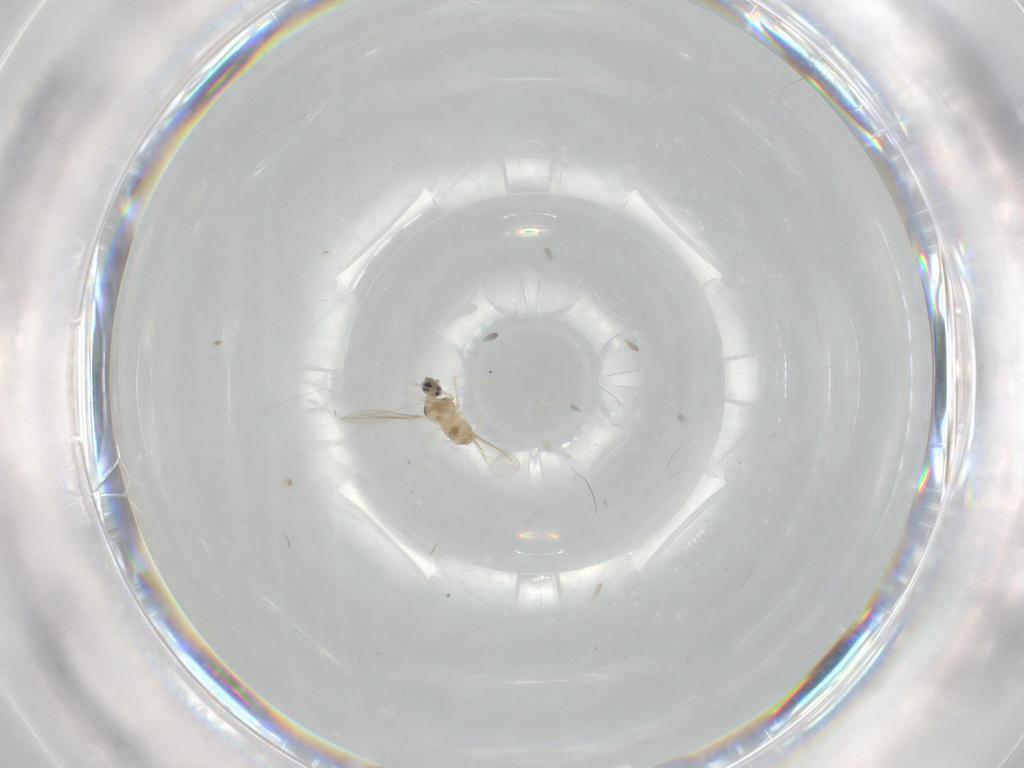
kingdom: Animalia
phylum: Arthropoda
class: Insecta
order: Diptera
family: Cecidomyiidae
